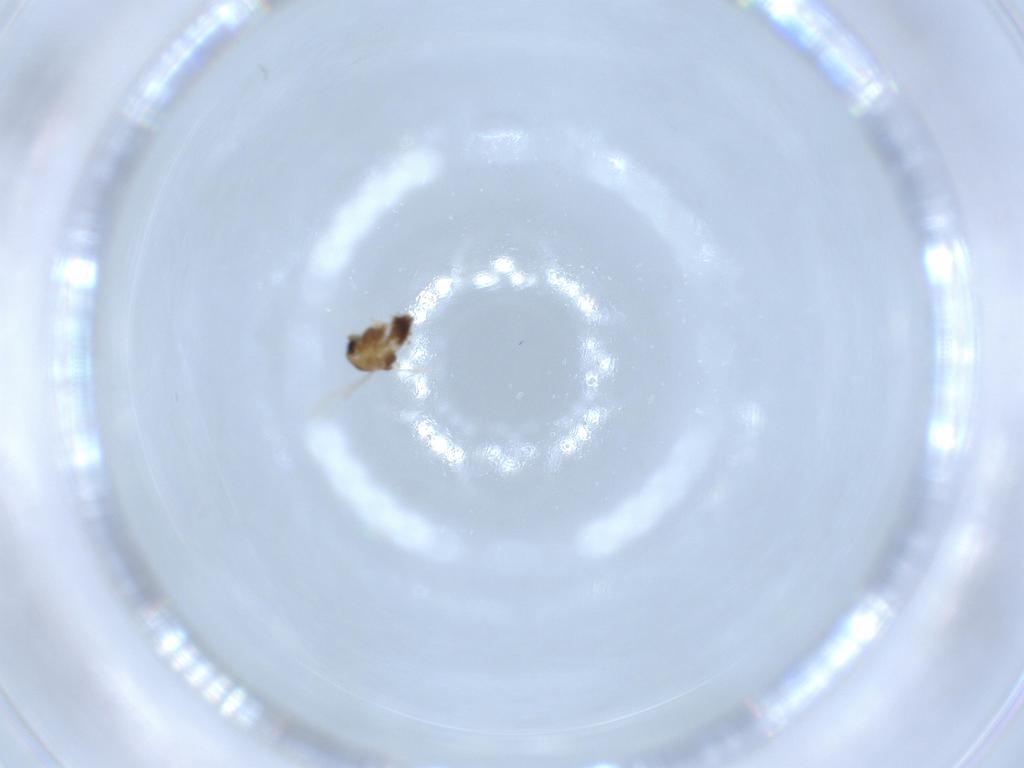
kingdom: Animalia
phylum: Arthropoda
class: Insecta
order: Diptera
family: Chironomidae
